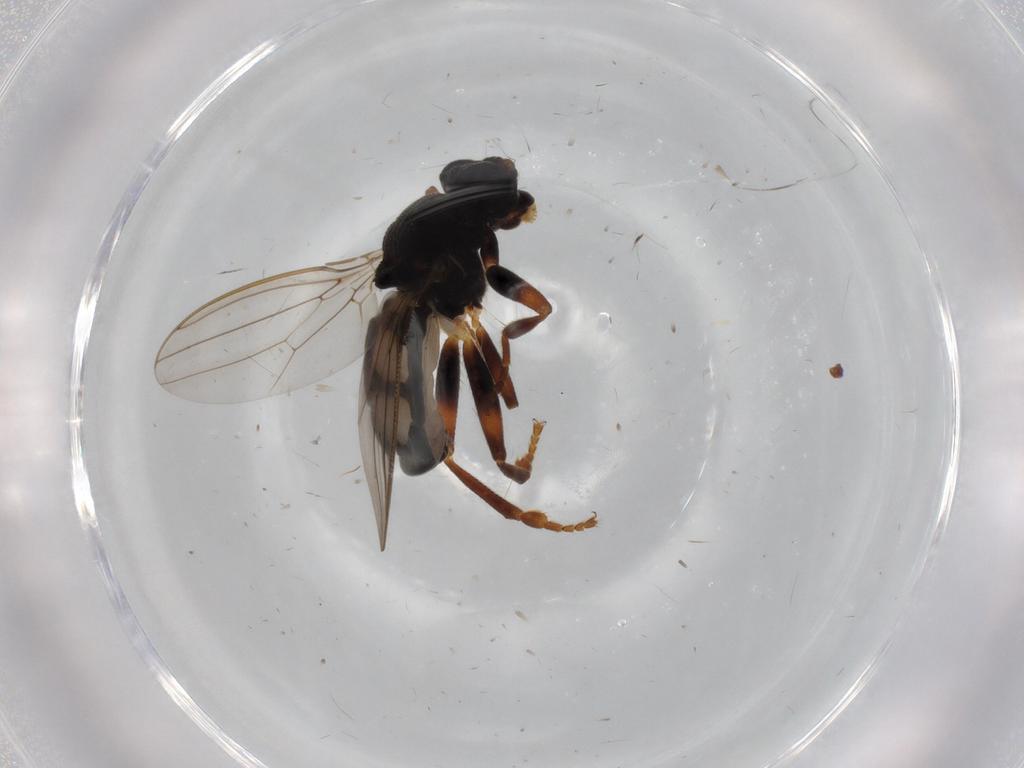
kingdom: Animalia
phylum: Arthropoda
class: Insecta
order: Diptera
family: Sphaeroceridae
